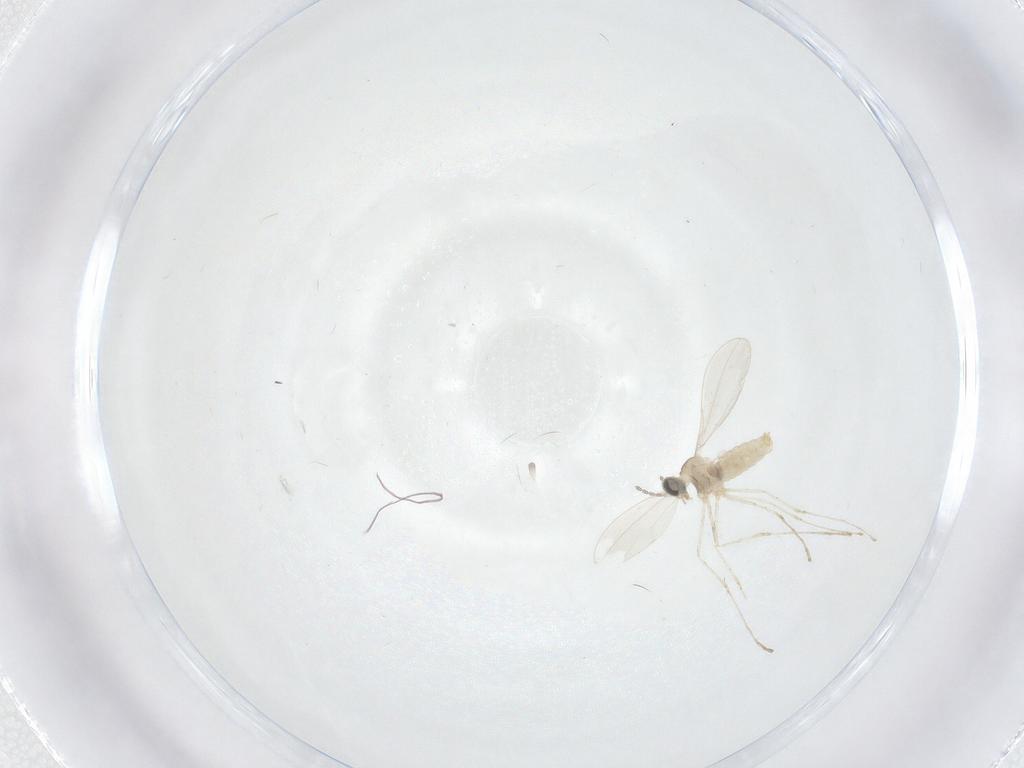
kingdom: Animalia
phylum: Arthropoda
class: Insecta
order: Diptera
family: Cecidomyiidae
